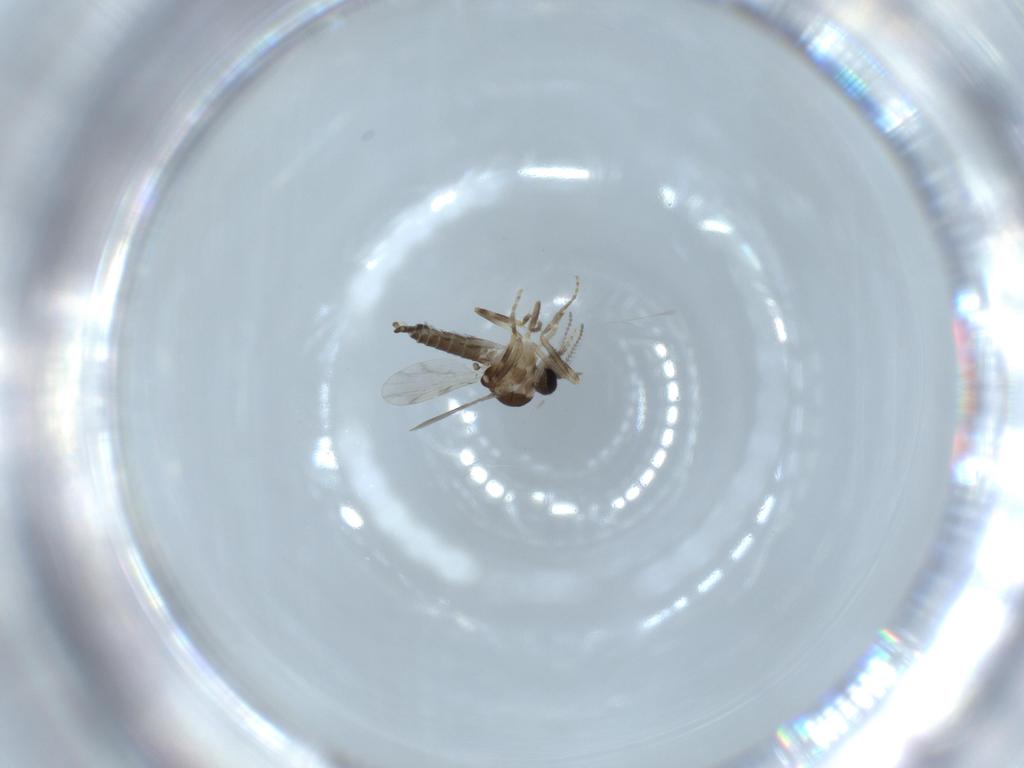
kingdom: Animalia
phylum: Arthropoda
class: Insecta
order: Diptera
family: Ceratopogonidae
